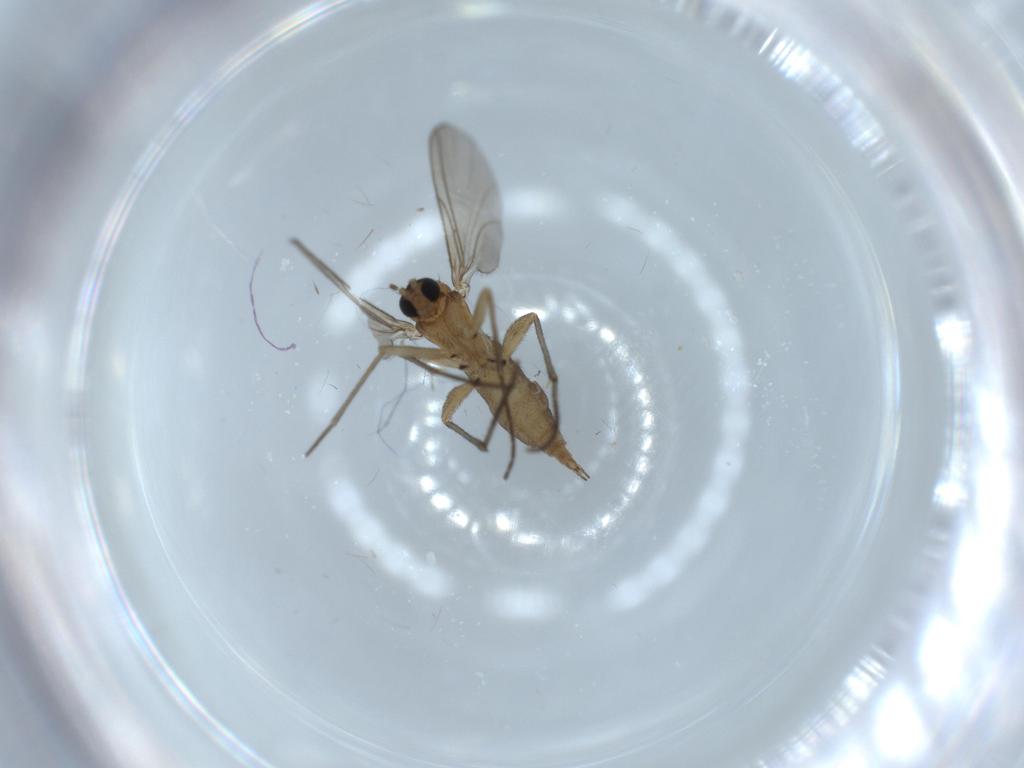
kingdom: Animalia
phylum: Arthropoda
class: Insecta
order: Diptera
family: Sciaridae
